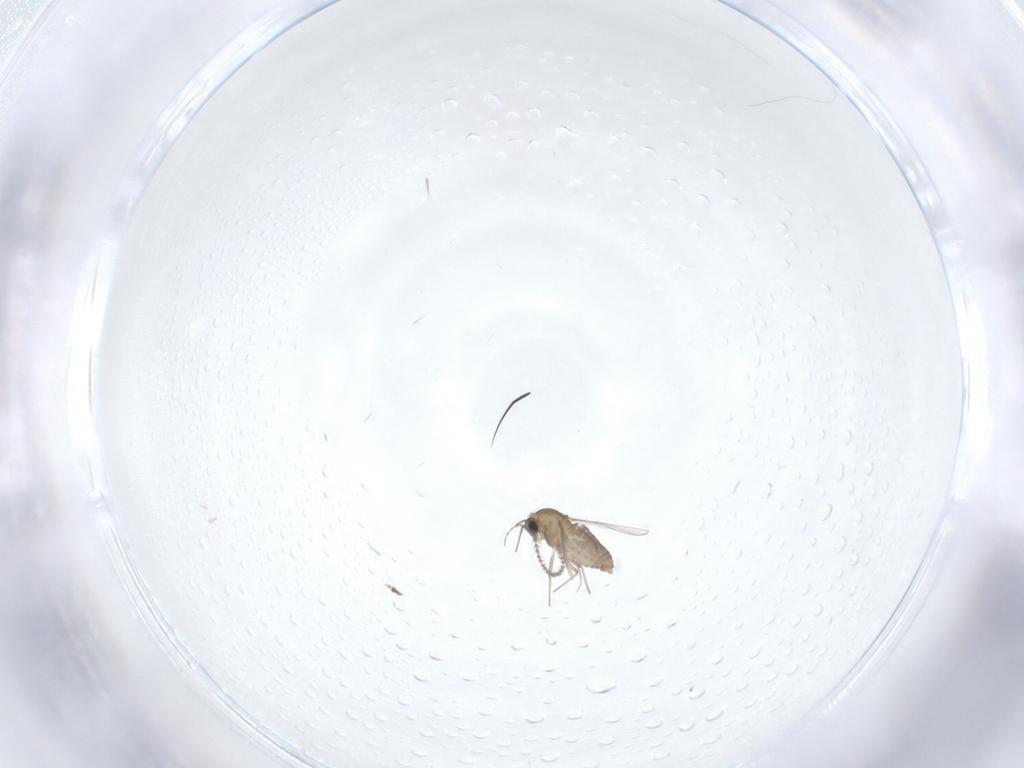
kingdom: Animalia
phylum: Arthropoda
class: Insecta
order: Diptera
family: Chironomidae
